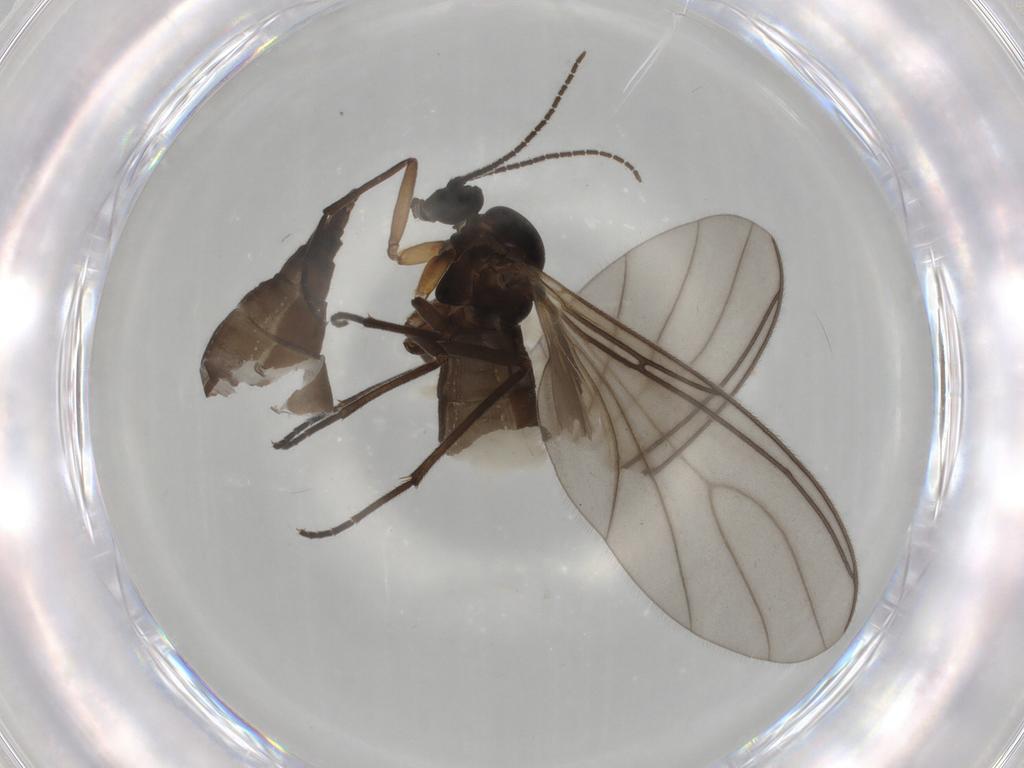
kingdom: Animalia
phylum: Arthropoda
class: Insecta
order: Diptera
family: Sciaridae
